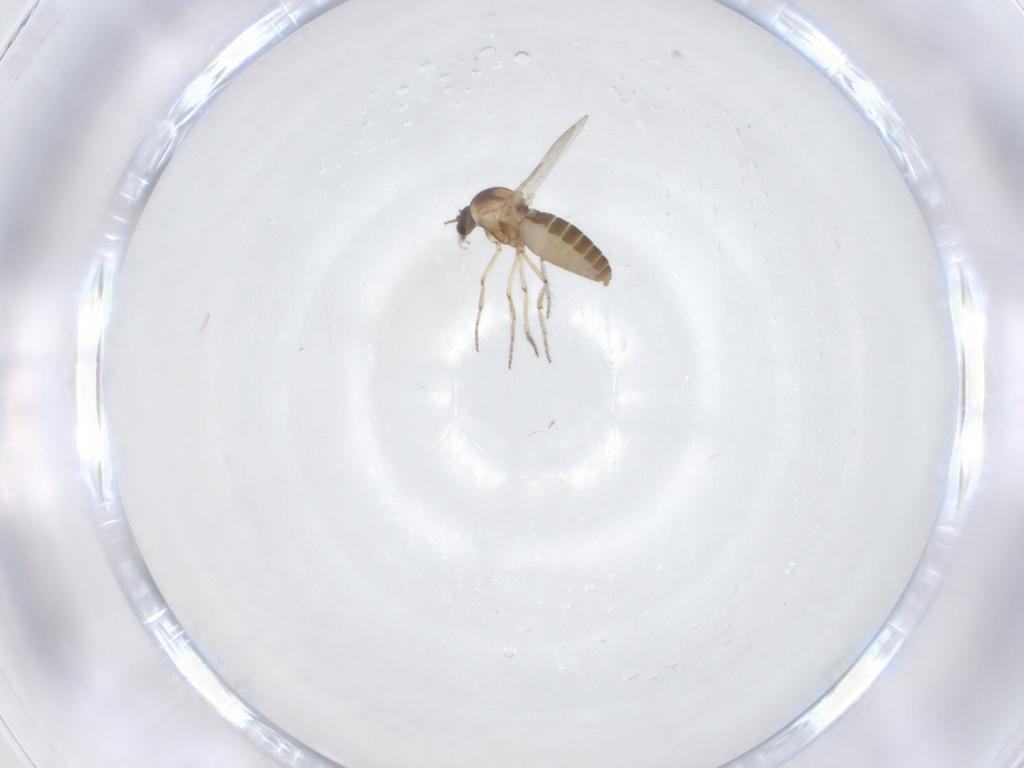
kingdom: Animalia
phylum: Arthropoda
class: Insecta
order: Diptera
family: Ceratopogonidae
